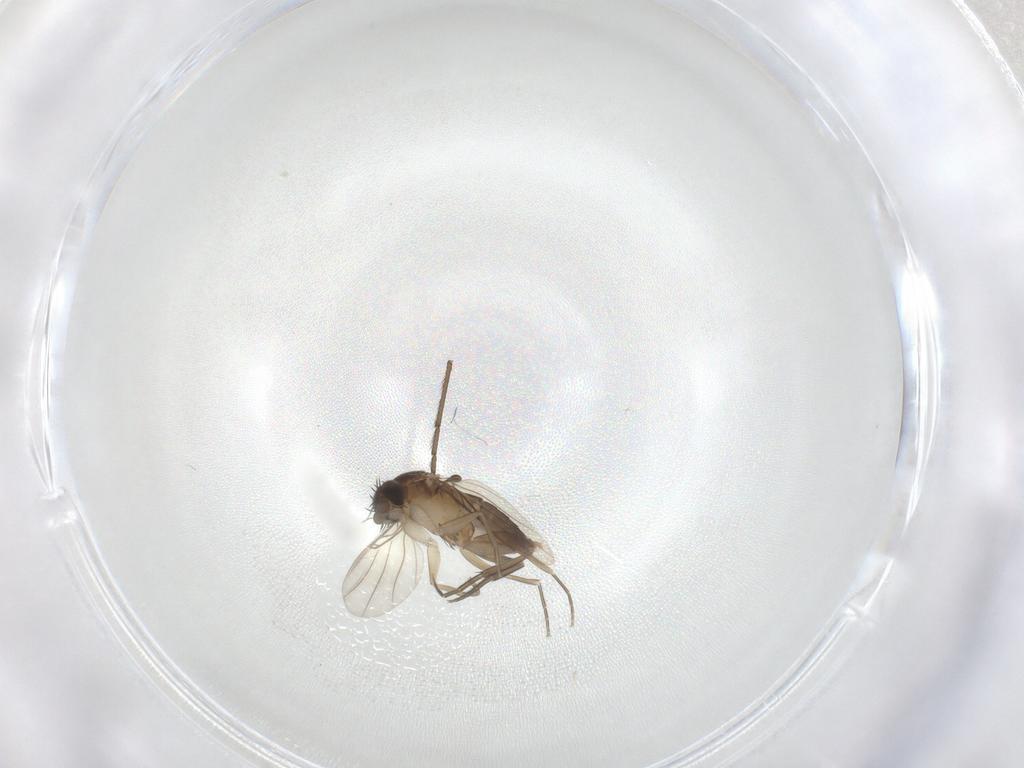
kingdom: Animalia
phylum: Arthropoda
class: Insecta
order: Diptera
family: Phoridae
